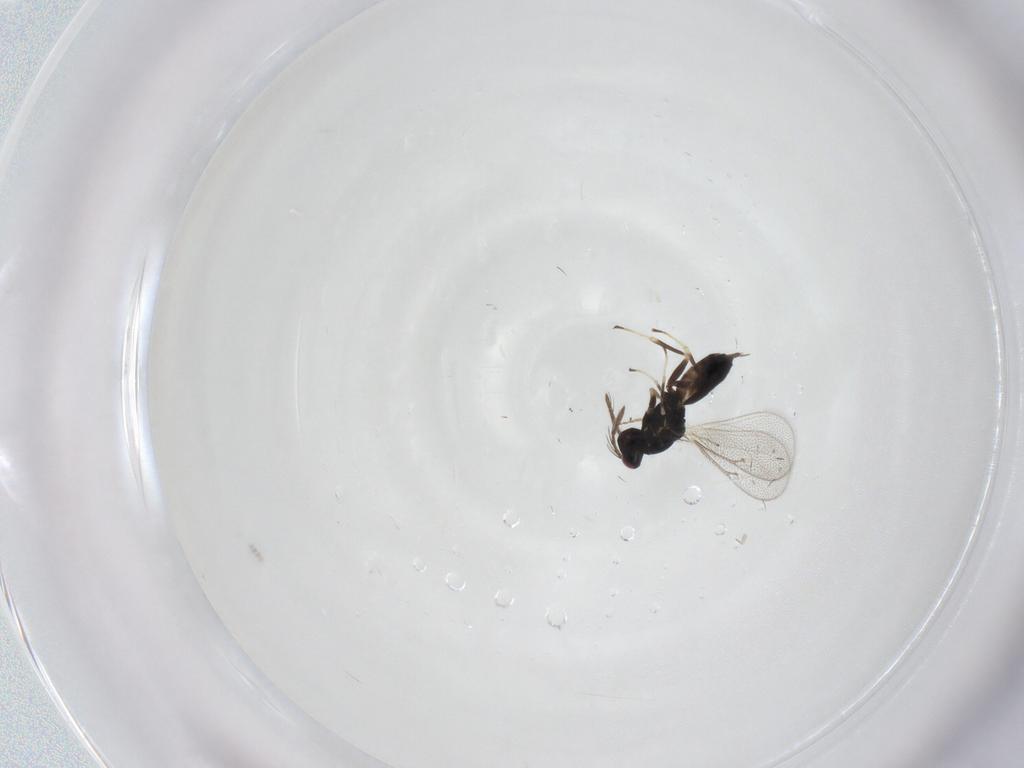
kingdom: Animalia
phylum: Arthropoda
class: Insecta
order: Hymenoptera
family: Eulophidae
